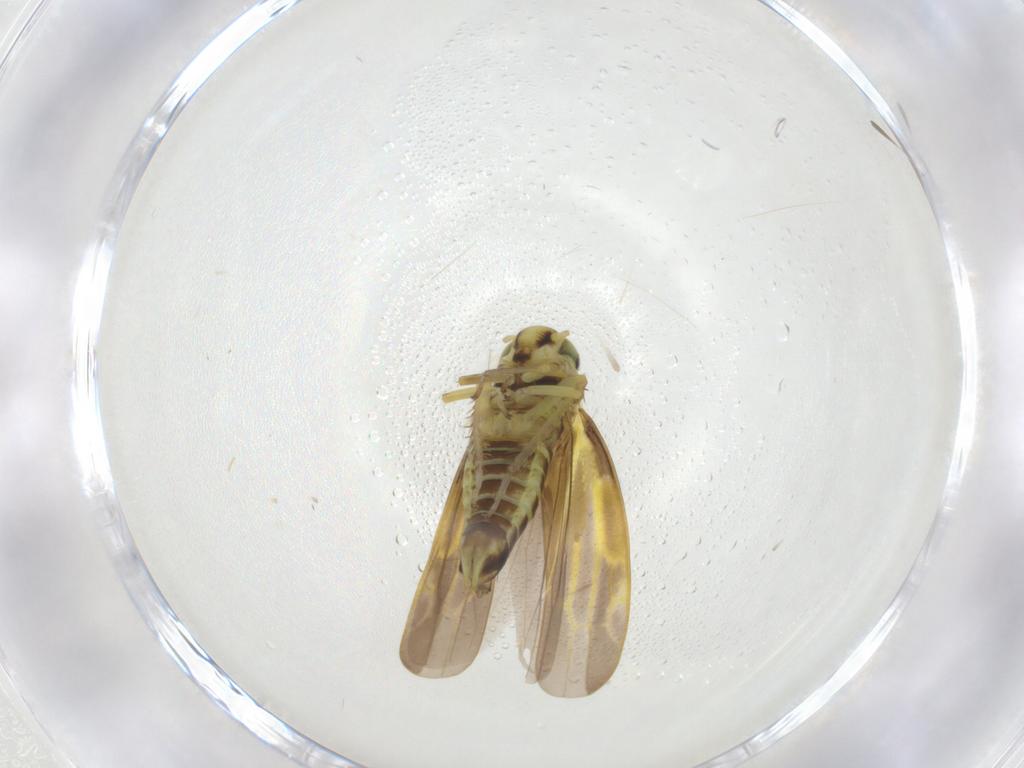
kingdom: Animalia
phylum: Arthropoda
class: Insecta
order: Hemiptera
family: Cicadellidae
